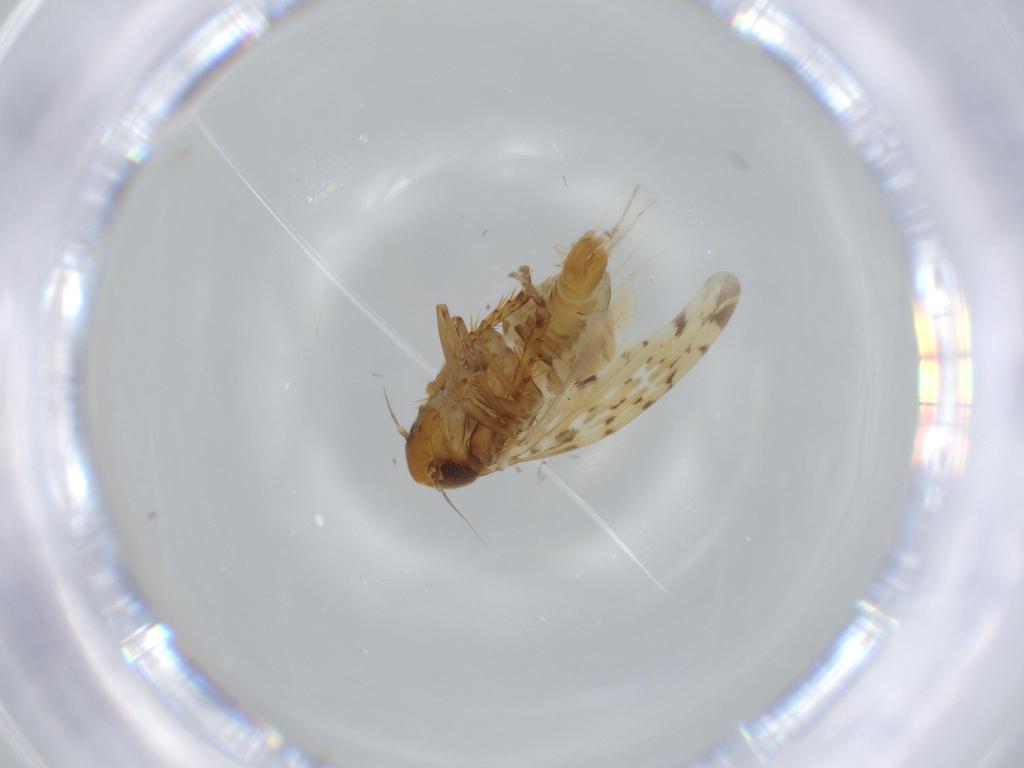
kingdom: Animalia
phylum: Arthropoda
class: Insecta
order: Hemiptera
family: Cicadellidae
